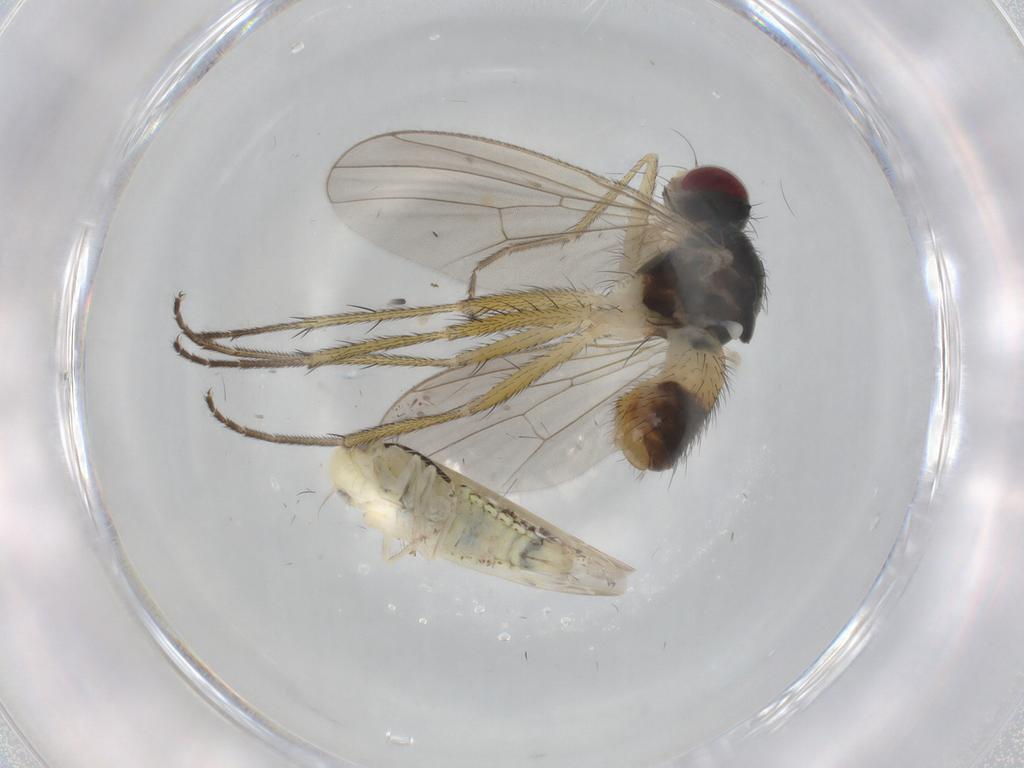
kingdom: Animalia
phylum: Arthropoda
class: Insecta
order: Diptera
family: Muscidae
